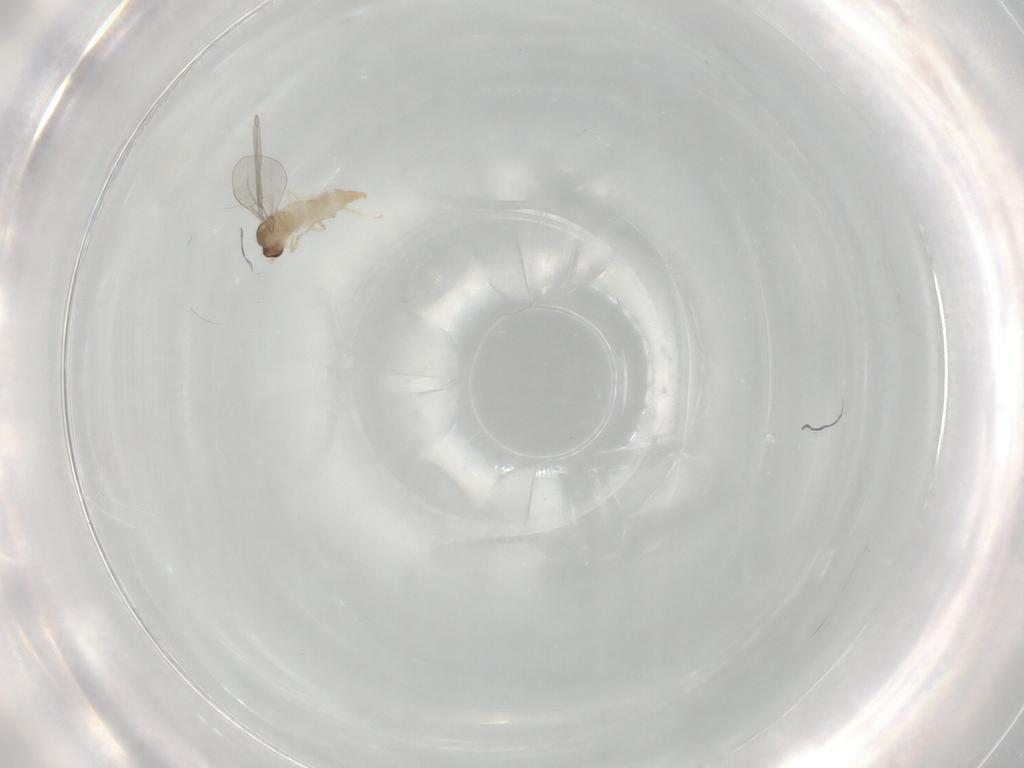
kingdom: Animalia
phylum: Arthropoda
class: Insecta
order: Diptera
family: Cecidomyiidae
